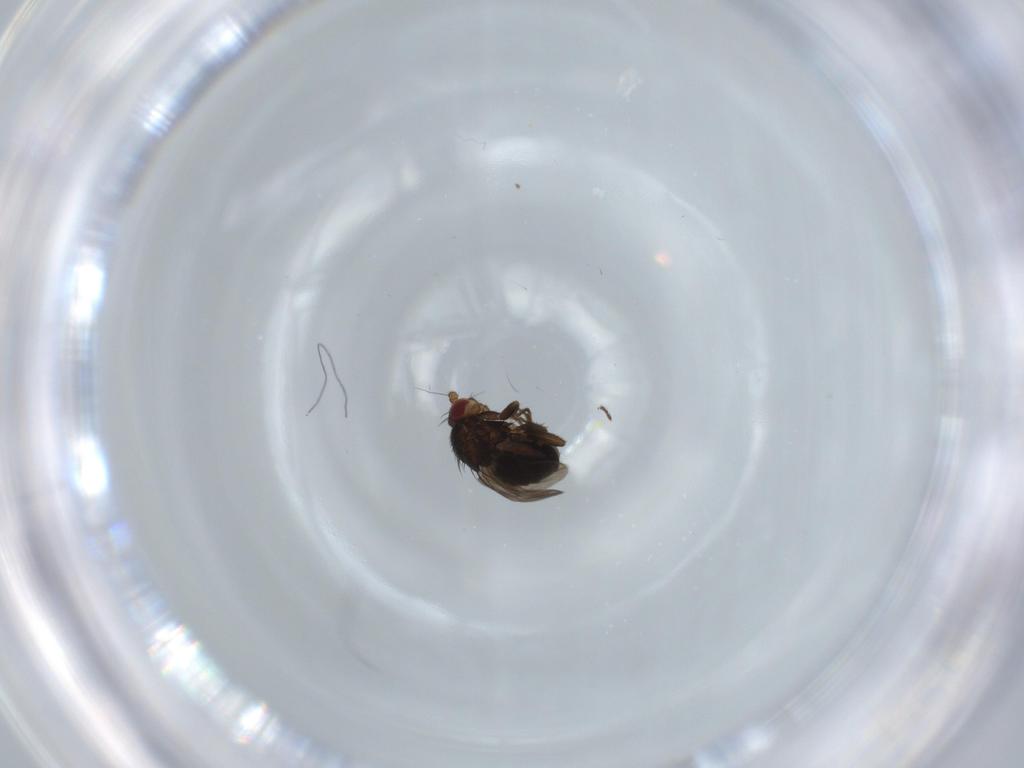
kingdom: Animalia
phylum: Arthropoda
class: Insecta
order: Diptera
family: Sphaeroceridae
